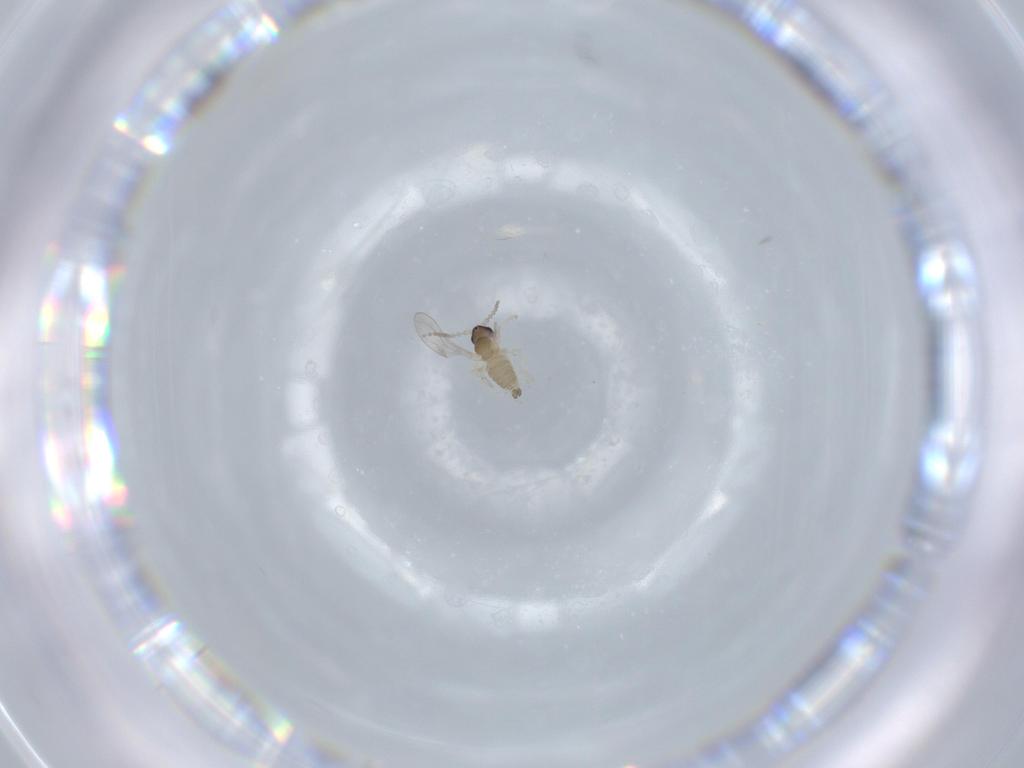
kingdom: Animalia
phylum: Arthropoda
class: Insecta
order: Diptera
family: Cecidomyiidae
